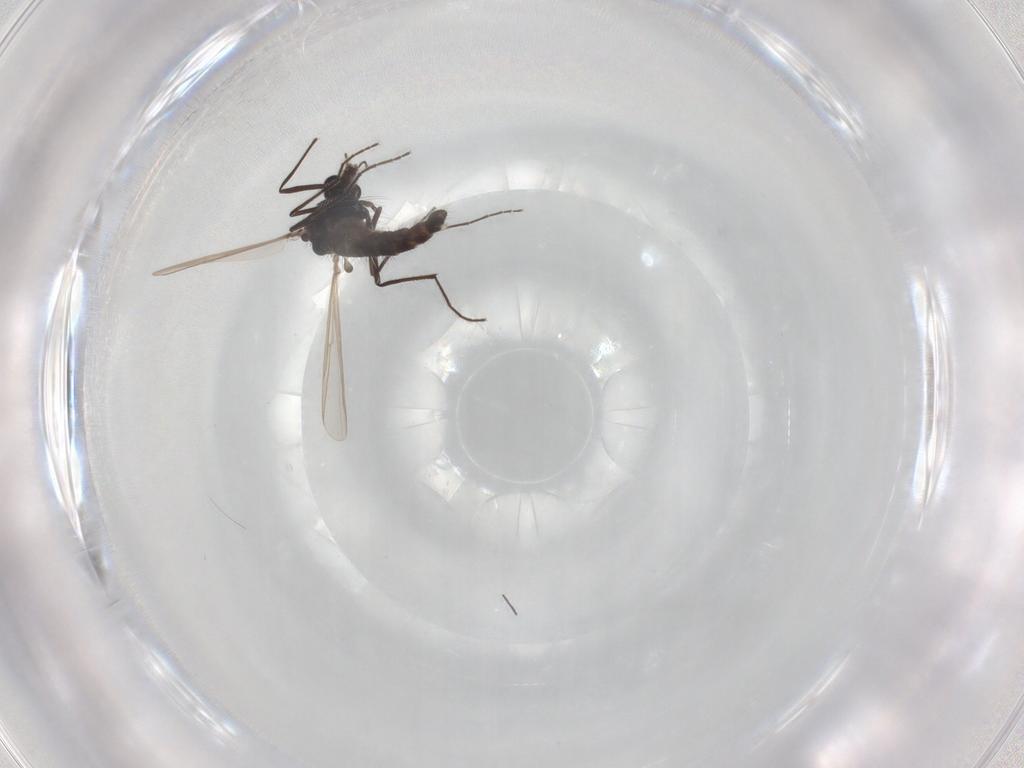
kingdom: Animalia
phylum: Arthropoda
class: Insecta
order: Diptera
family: Chironomidae
